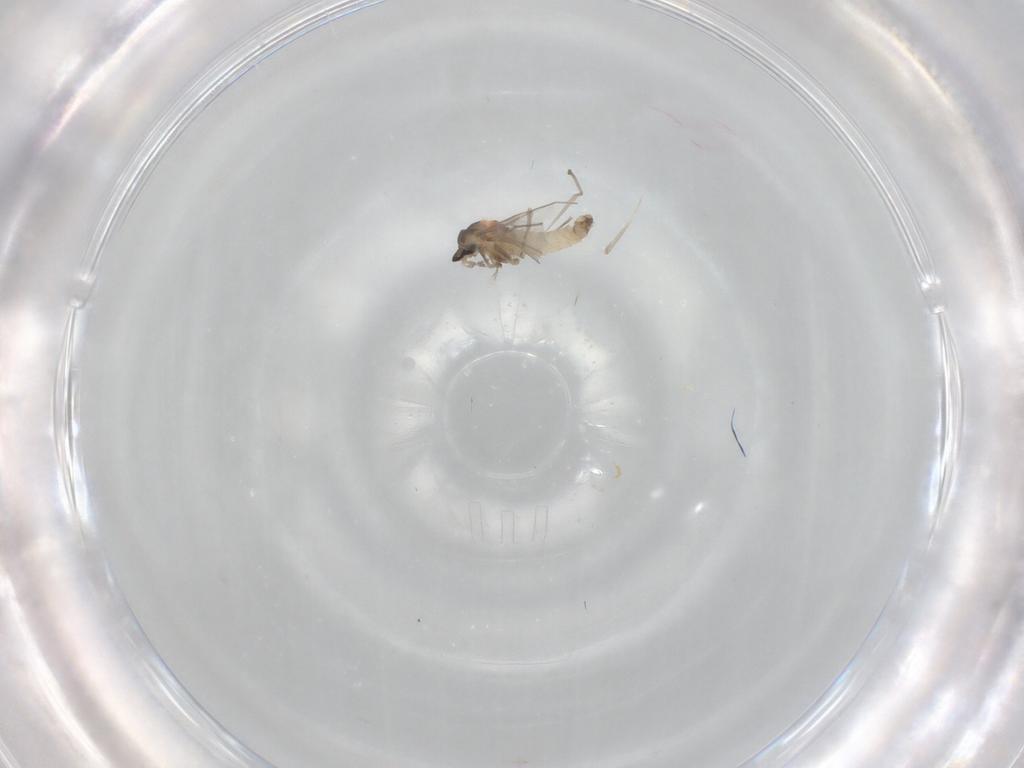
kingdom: Animalia
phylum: Arthropoda
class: Insecta
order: Diptera
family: Cecidomyiidae
